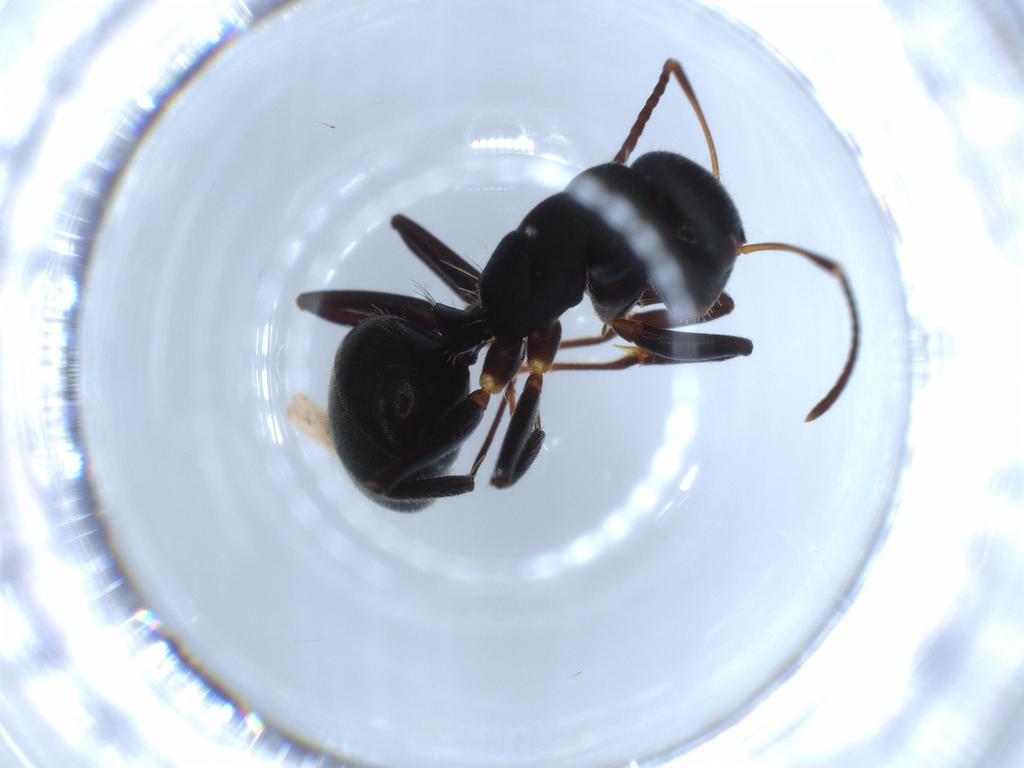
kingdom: Animalia
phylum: Arthropoda
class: Insecta
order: Hymenoptera
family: Formicidae
